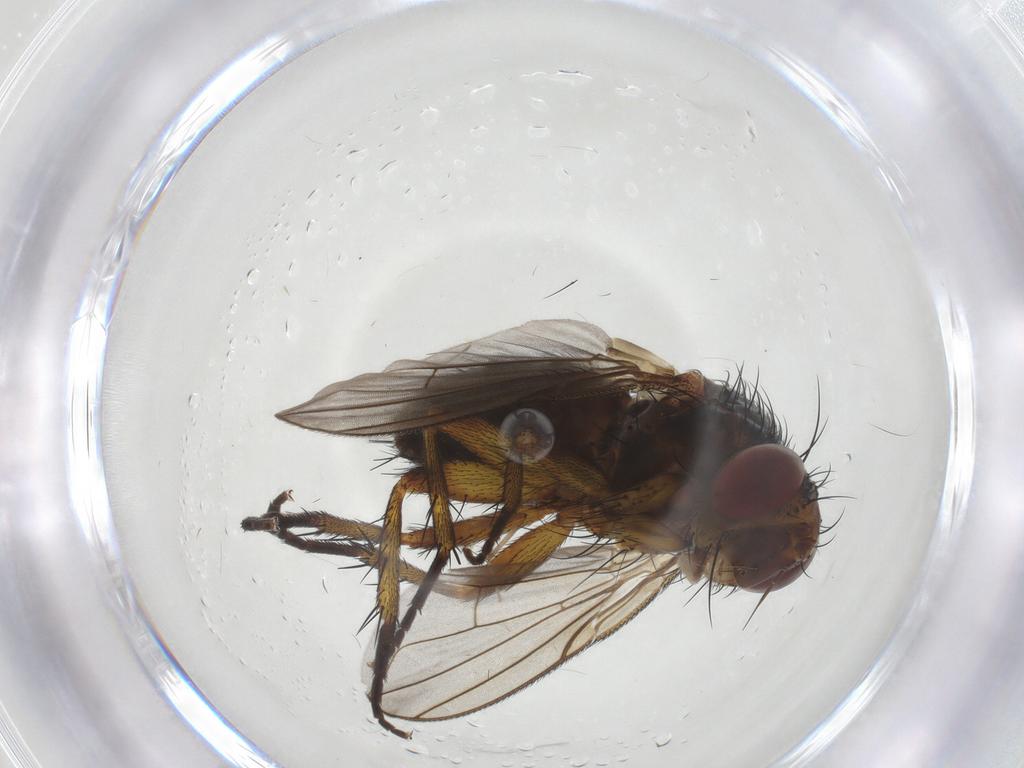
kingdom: Animalia
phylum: Arthropoda
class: Insecta
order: Diptera
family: Tachinidae
